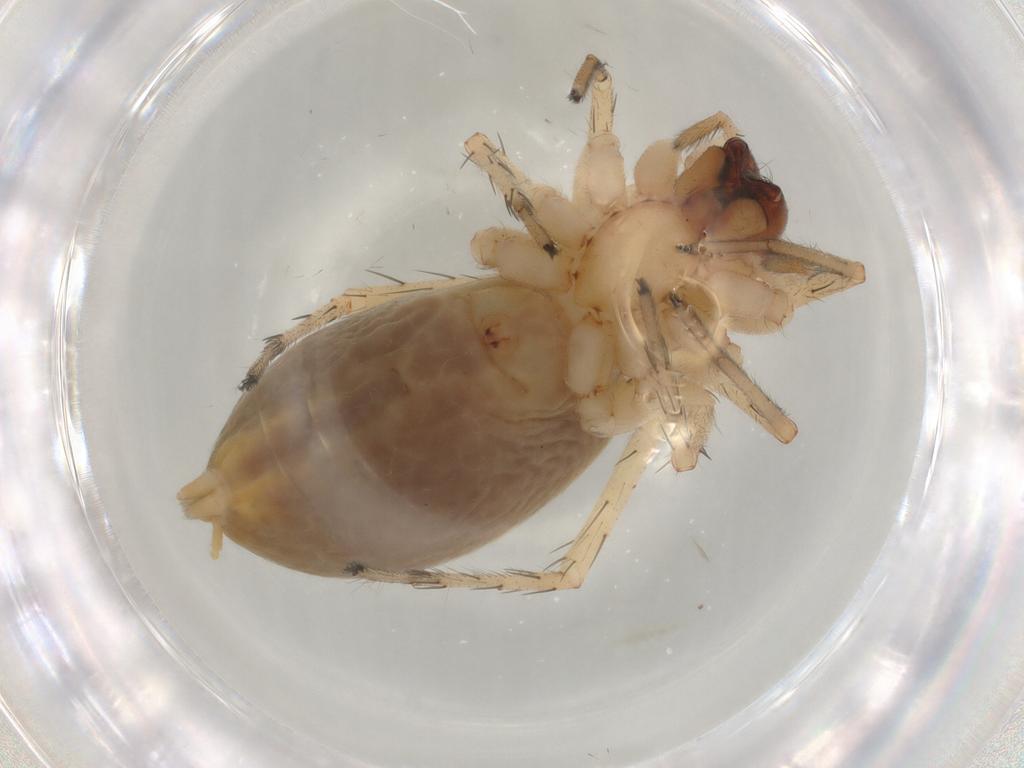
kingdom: Animalia
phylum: Arthropoda
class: Arachnida
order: Araneae
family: Anyphaenidae
